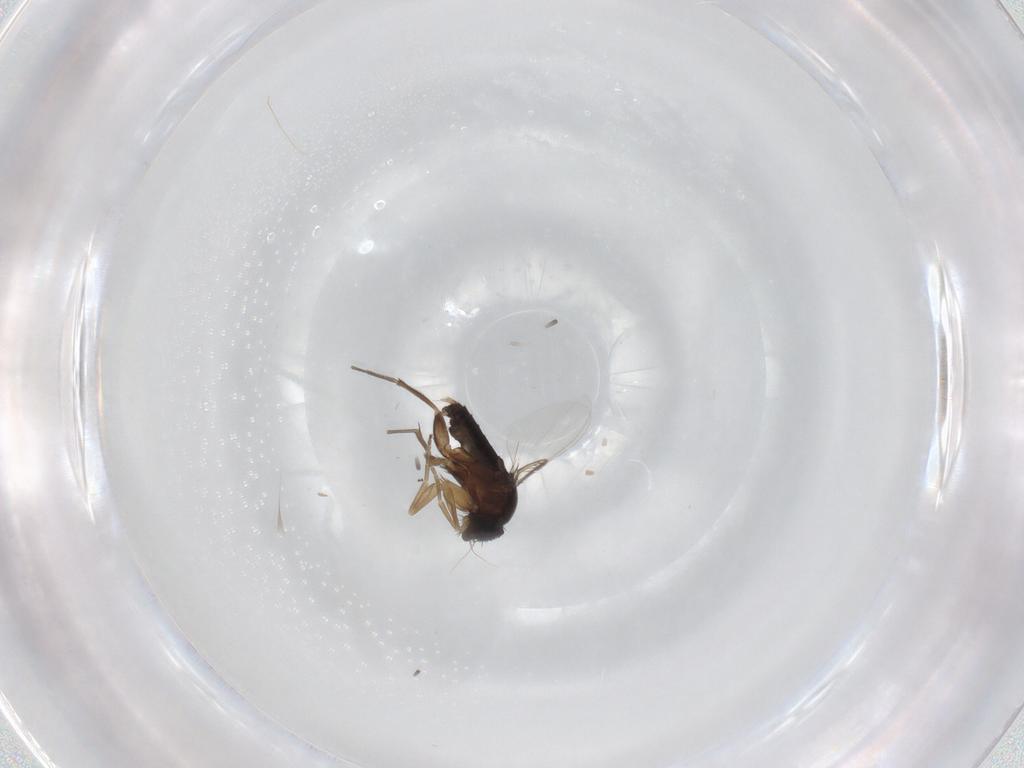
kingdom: Animalia
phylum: Arthropoda
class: Insecta
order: Diptera
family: Phoridae
